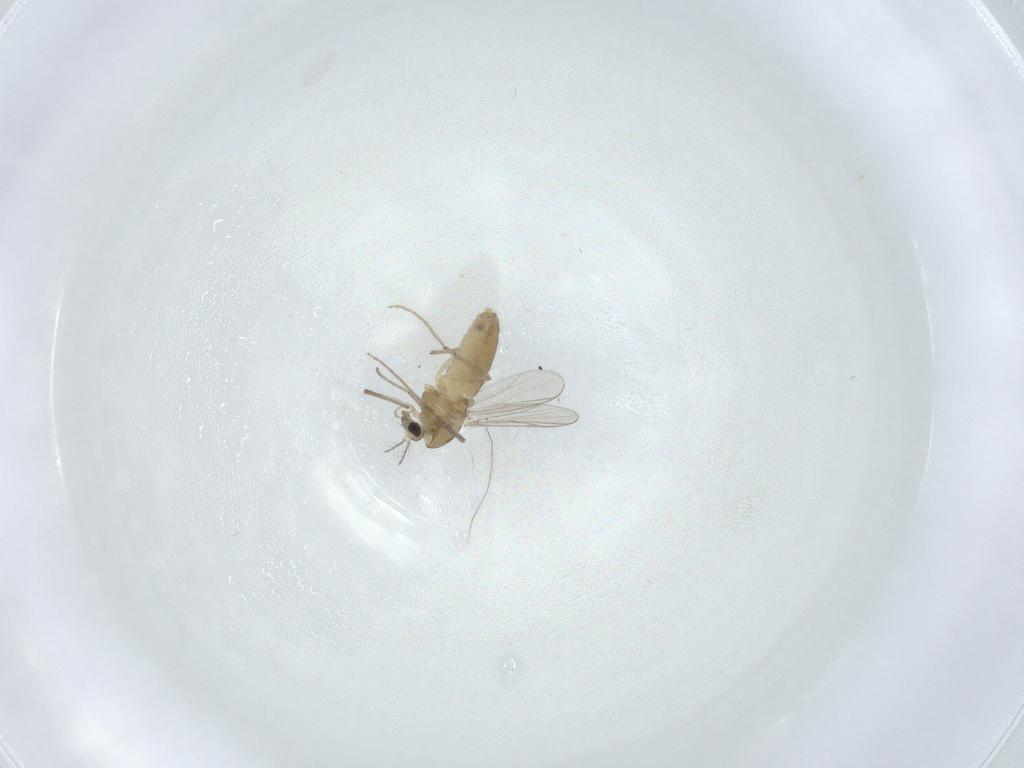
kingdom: Animalia
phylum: Arthropoda
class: Insecta
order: Diptera
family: Chironomidae
